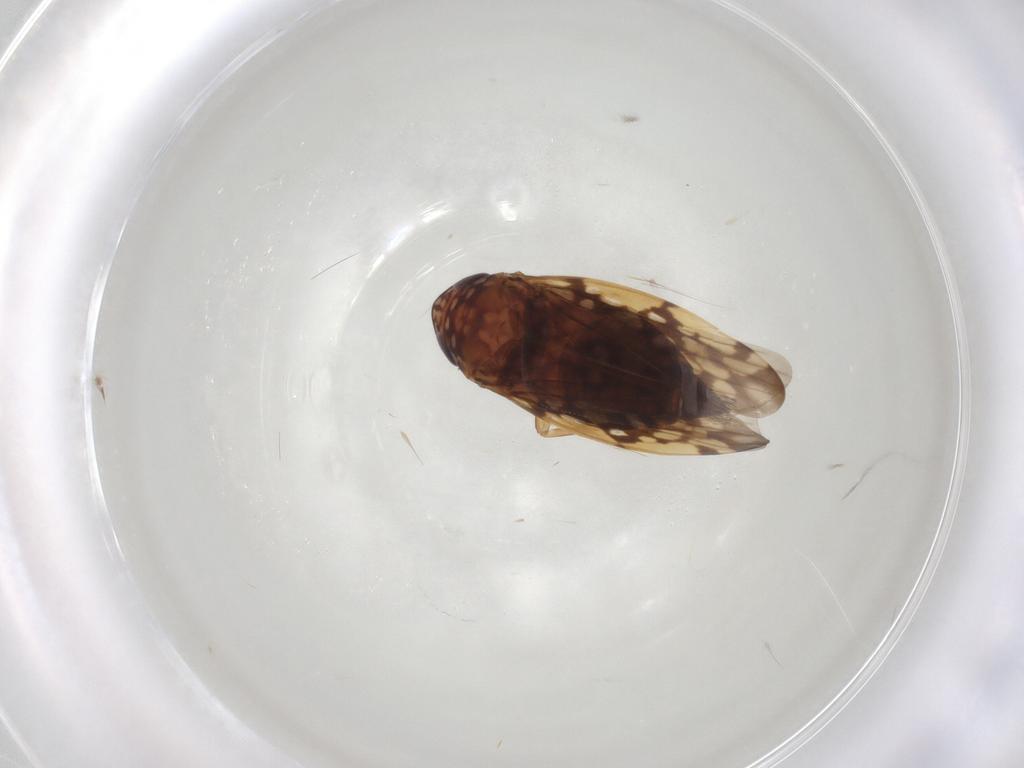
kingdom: Animalia
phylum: Arthropoda
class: Insecta
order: Hemiptera
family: Cicadellidae
